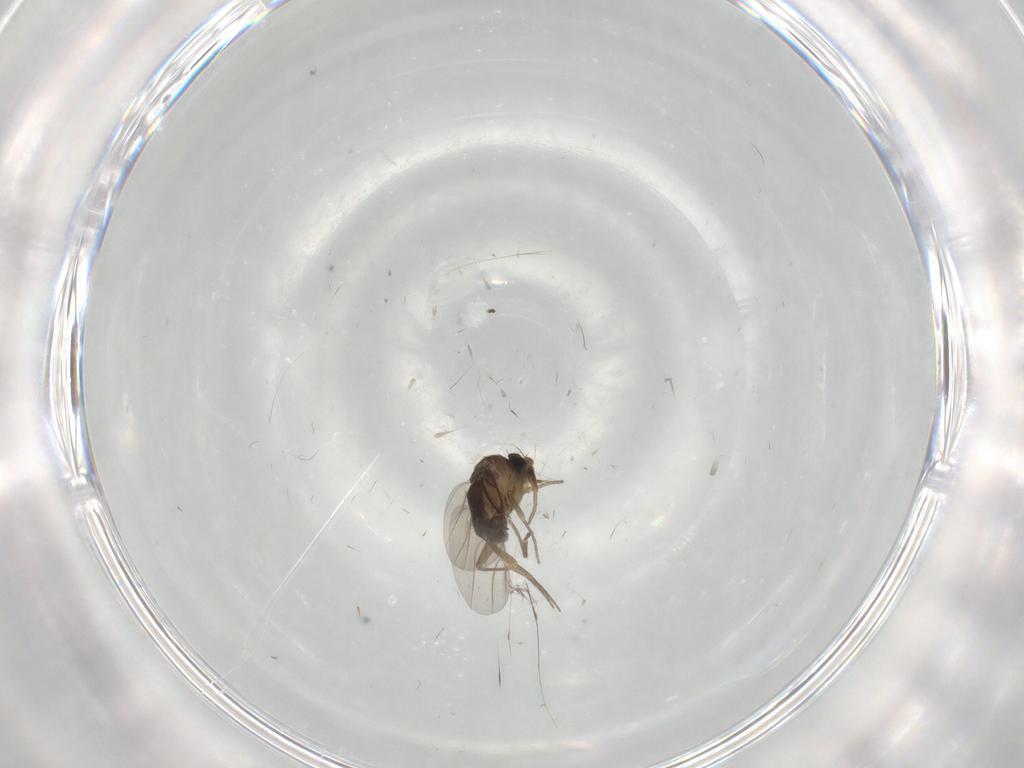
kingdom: Animalia
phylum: Arthropoda
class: Insecta
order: Diptera
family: Phoridae
